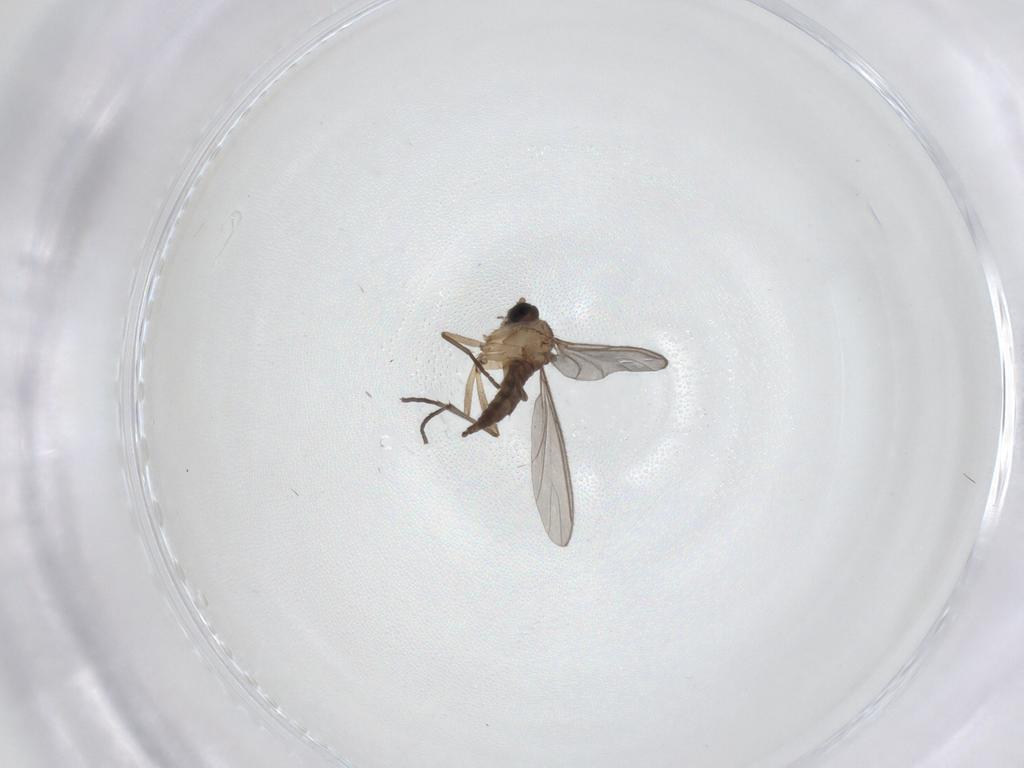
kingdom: Animalia
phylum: Arthropoda
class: Insecta
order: Diptera
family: Sciaridae
